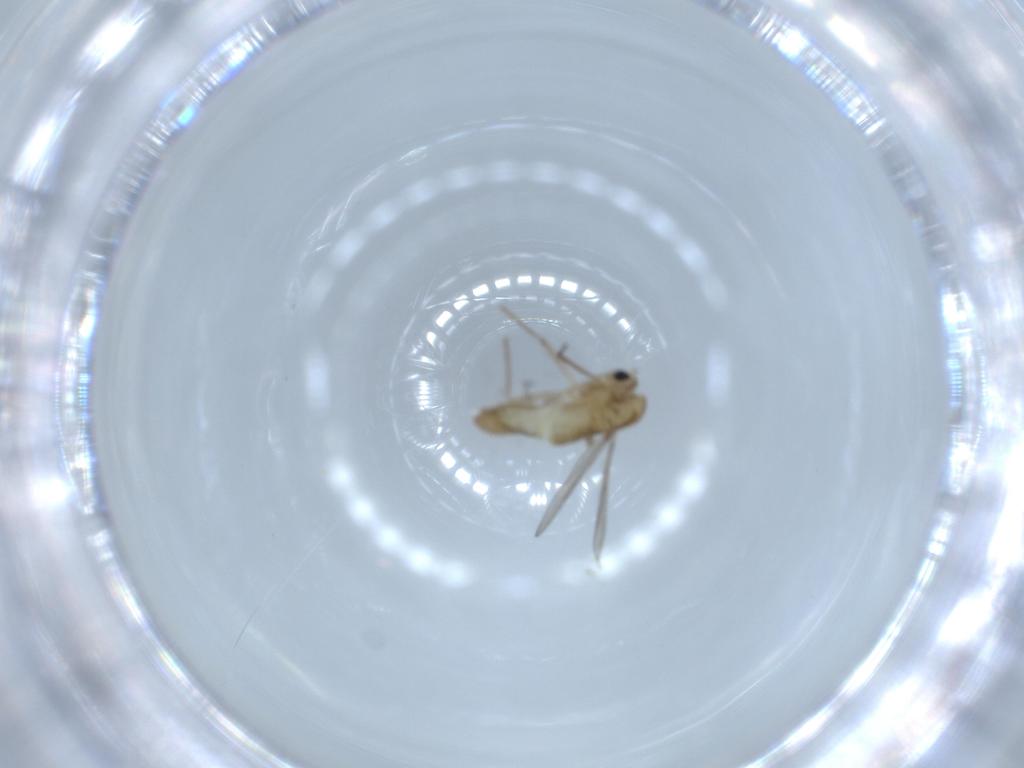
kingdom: Animalia
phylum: Arthropoda
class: Insecta
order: Diptera
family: Chironomidae
